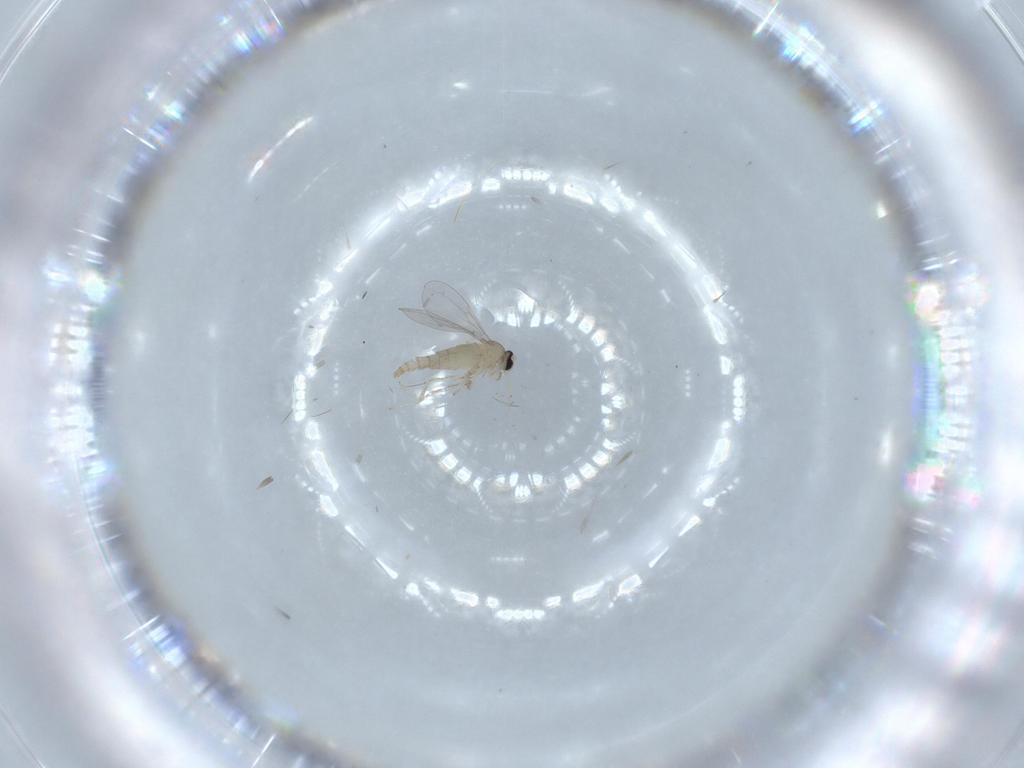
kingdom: Animalia
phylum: Arthropoda
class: Insecta
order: Diptera
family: Cecidomyiidae
